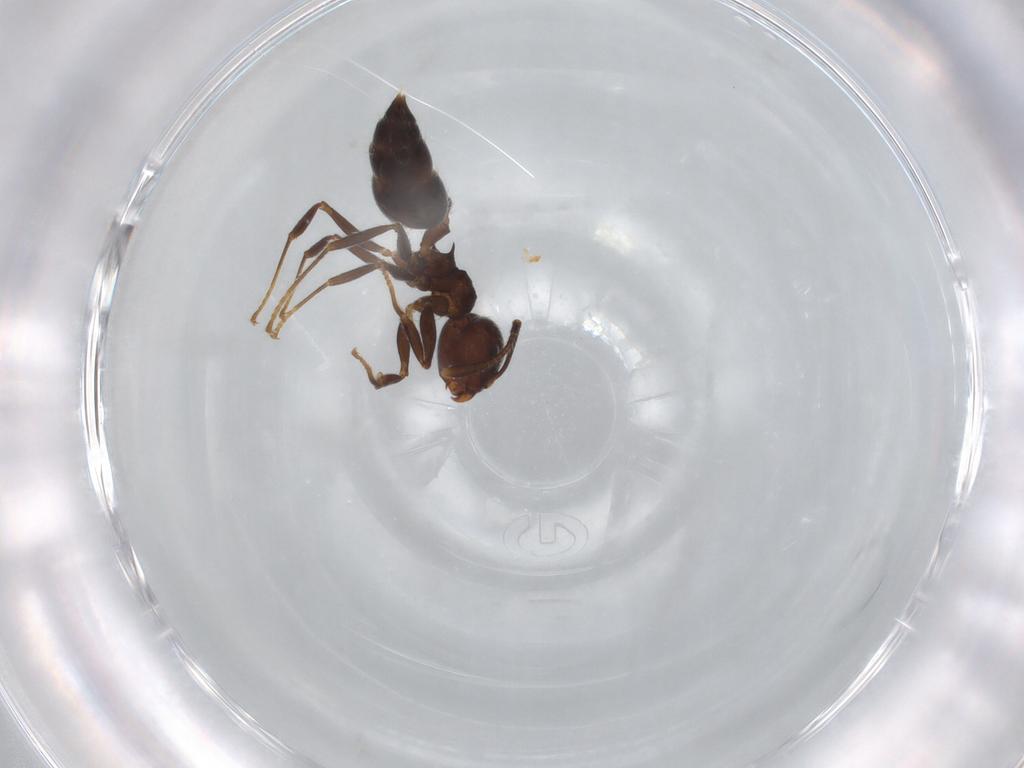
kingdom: Animalia
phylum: Arthropoda
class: Insecta
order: Hymenoptera
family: Formicidae
